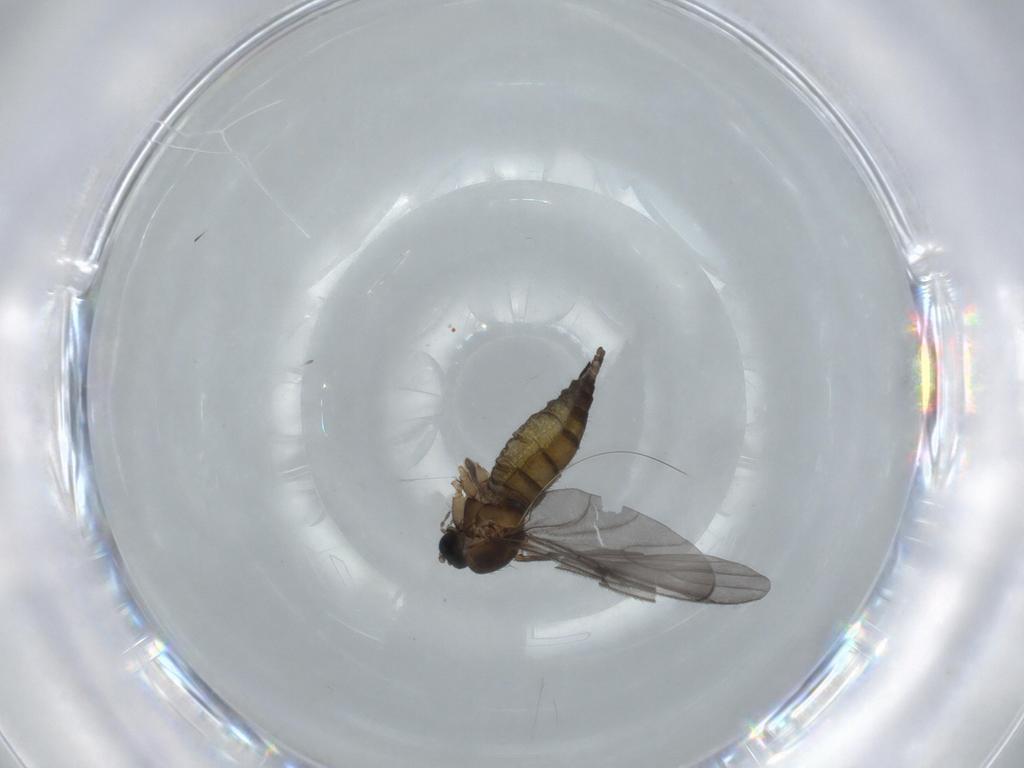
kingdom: Animalia
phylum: Arthropoda
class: Insecta
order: Diptera
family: Sciaridae
